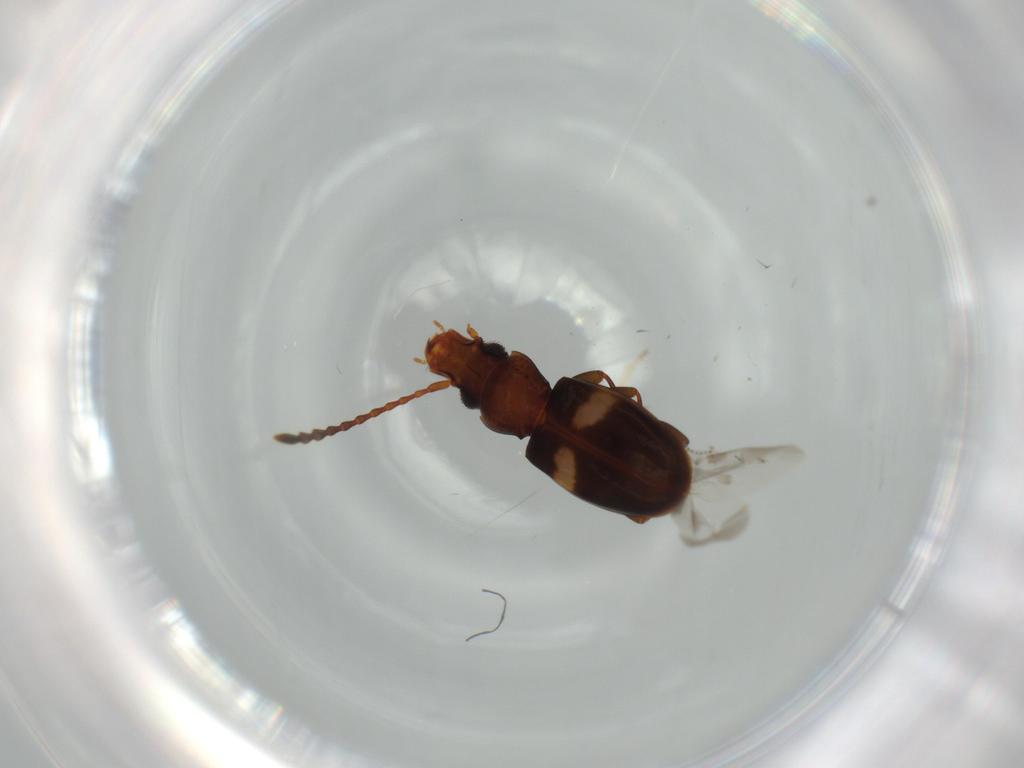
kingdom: Animalia
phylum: Arthropoda
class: Insecta
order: Coleoptera
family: Laemophloeidae
